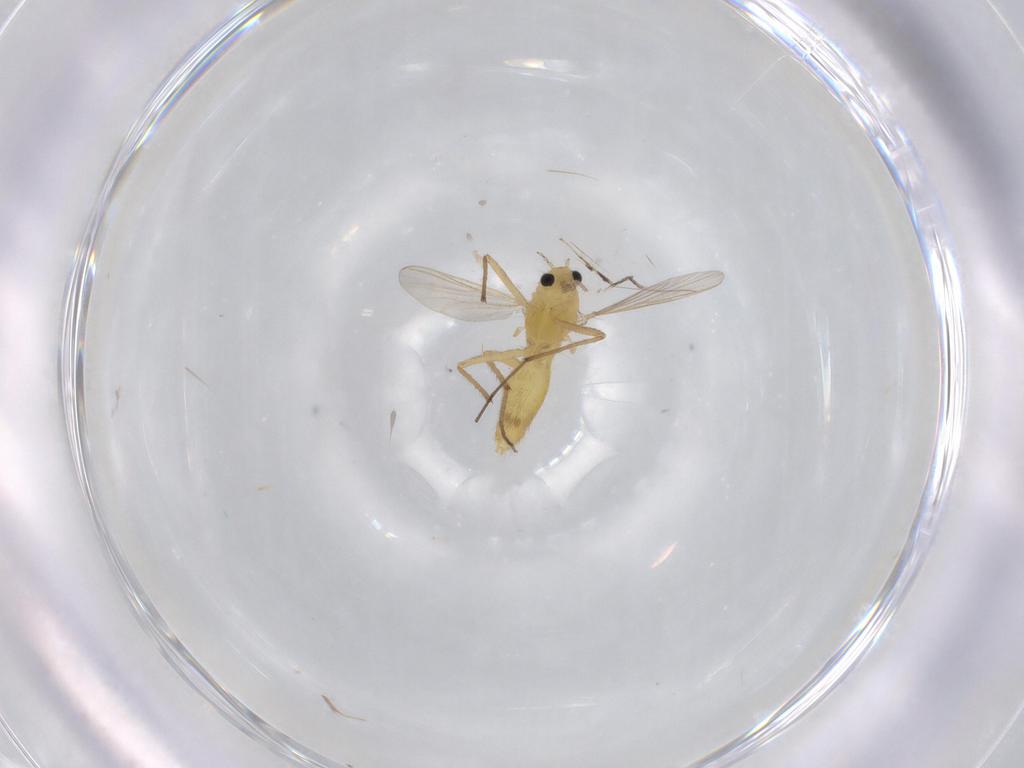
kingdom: Animalia
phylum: Arthropoda
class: Insecta
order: Diptera
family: Chironomidae
